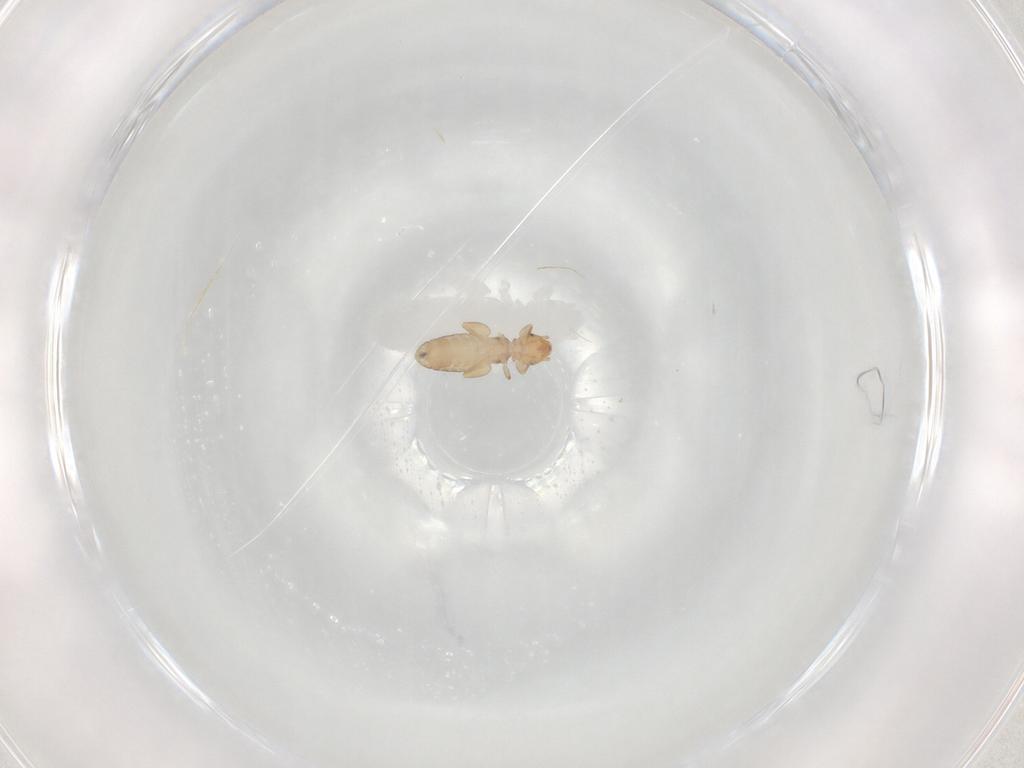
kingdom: Animalia
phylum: Arthropoda
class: Insecta
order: Psocodea
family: Liposcelididae
